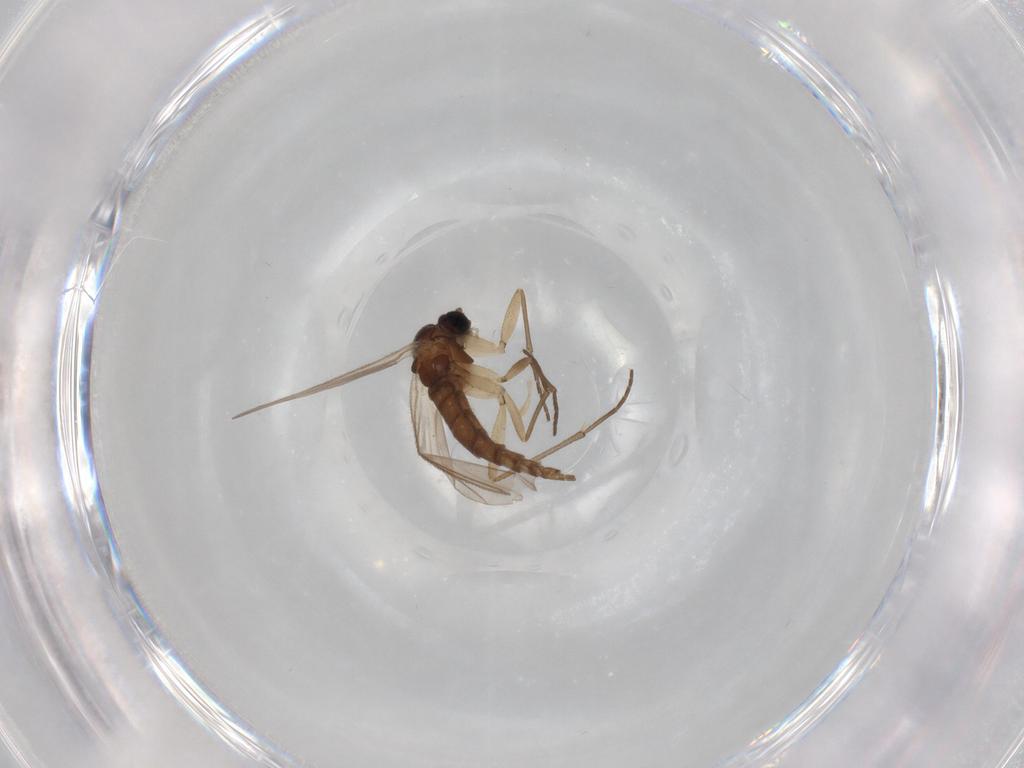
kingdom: Animalia
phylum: Arthropoda
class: Insecta
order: Diptera
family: Sciaridae
